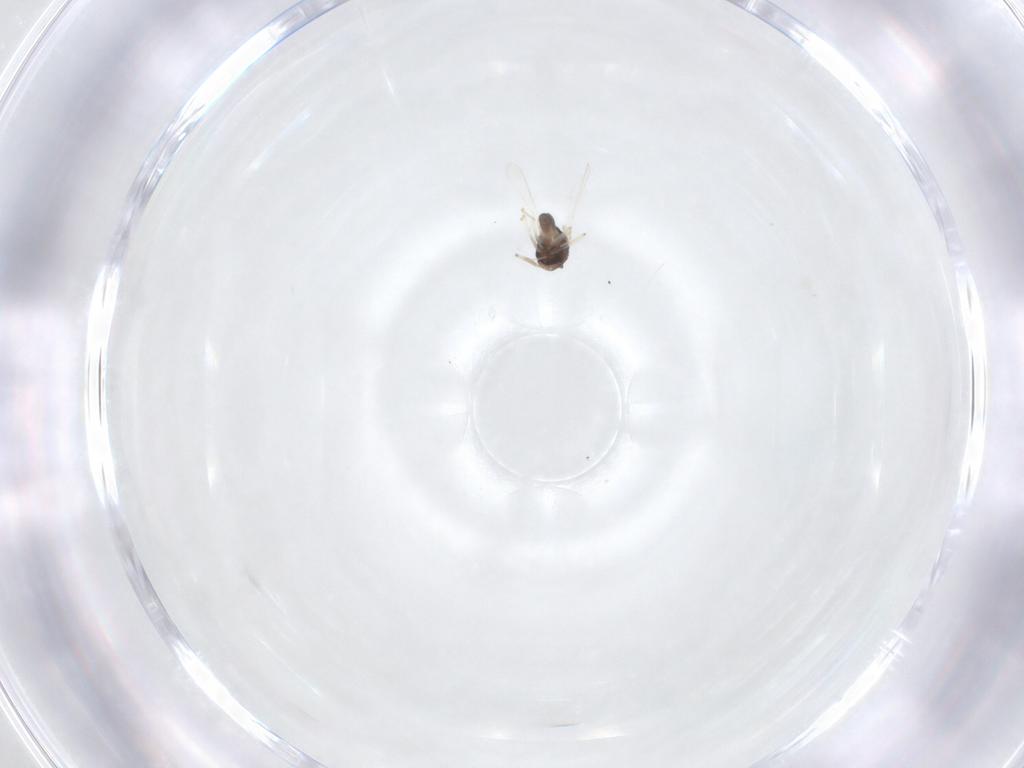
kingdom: Animalia
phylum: Arthropoda
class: Insecta
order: Diptera
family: Chironomidae
